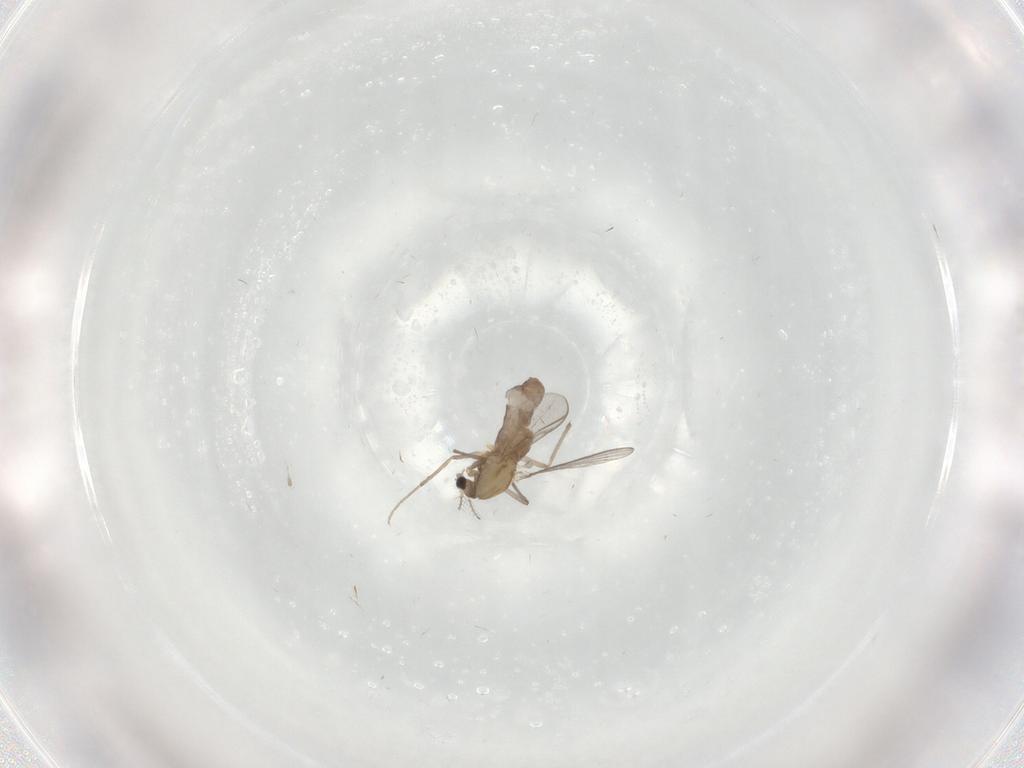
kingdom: Animalia
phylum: Arthropoda
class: Insecta
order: Diptera
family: Chironomidae
